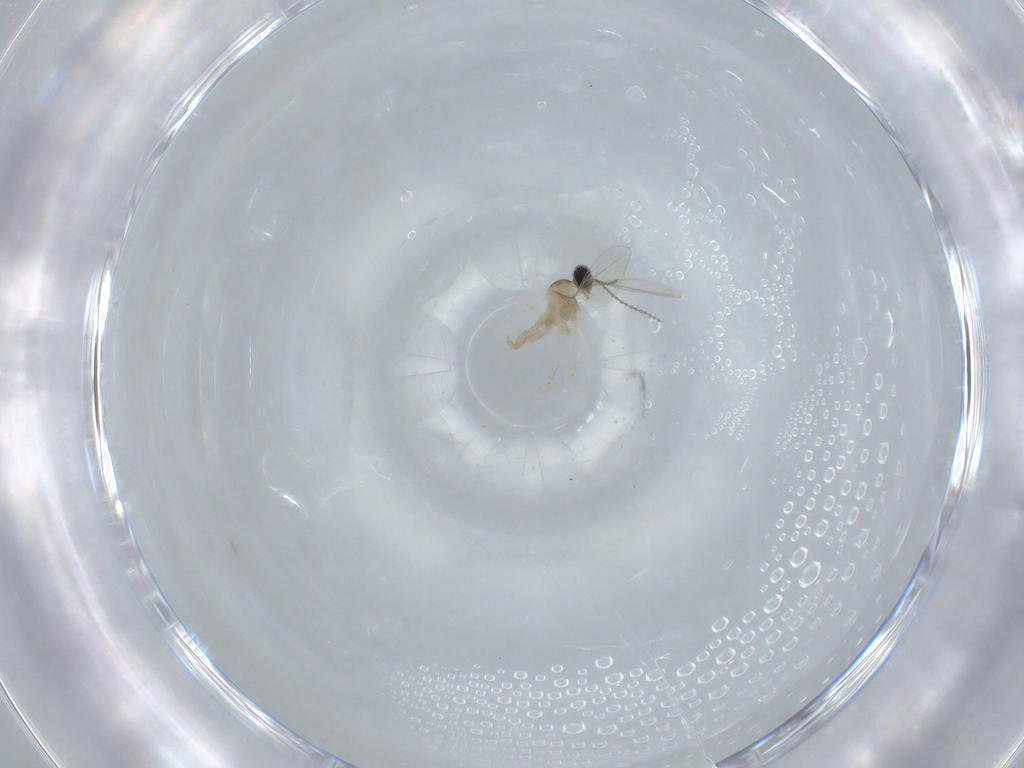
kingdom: Animalia
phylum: Arthropoda
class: Insecta
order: Diptera
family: Cecidomyiidae
